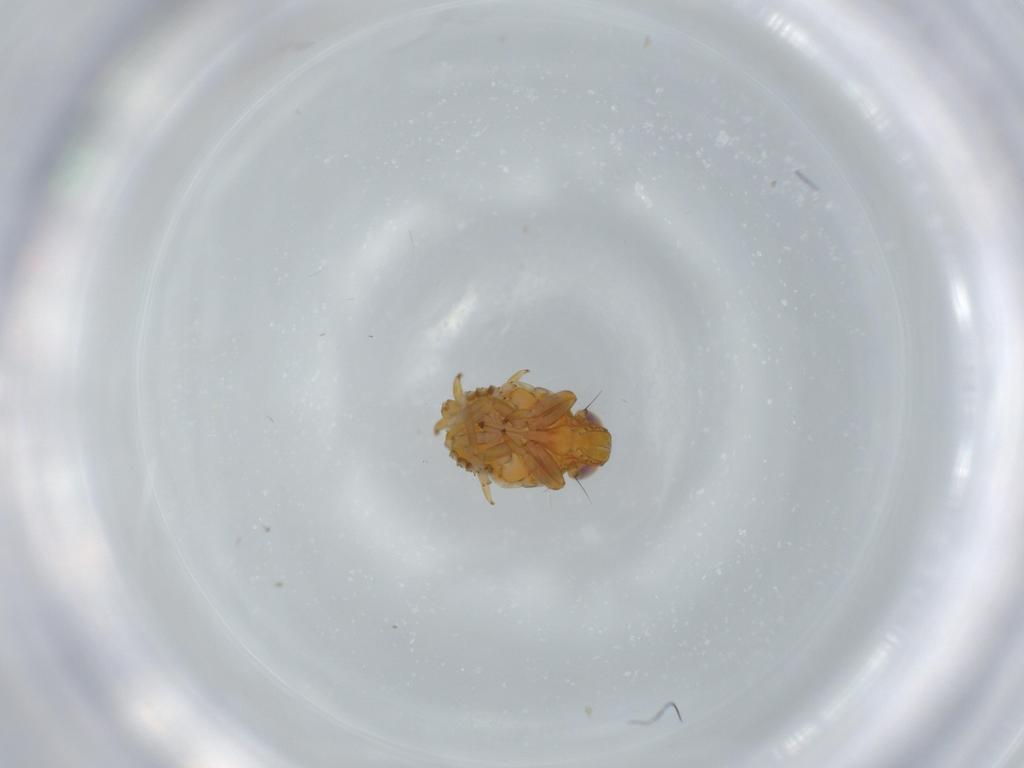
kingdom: Animalia
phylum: Arthropoda
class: Insecta
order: Hemiptera
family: Issidae
